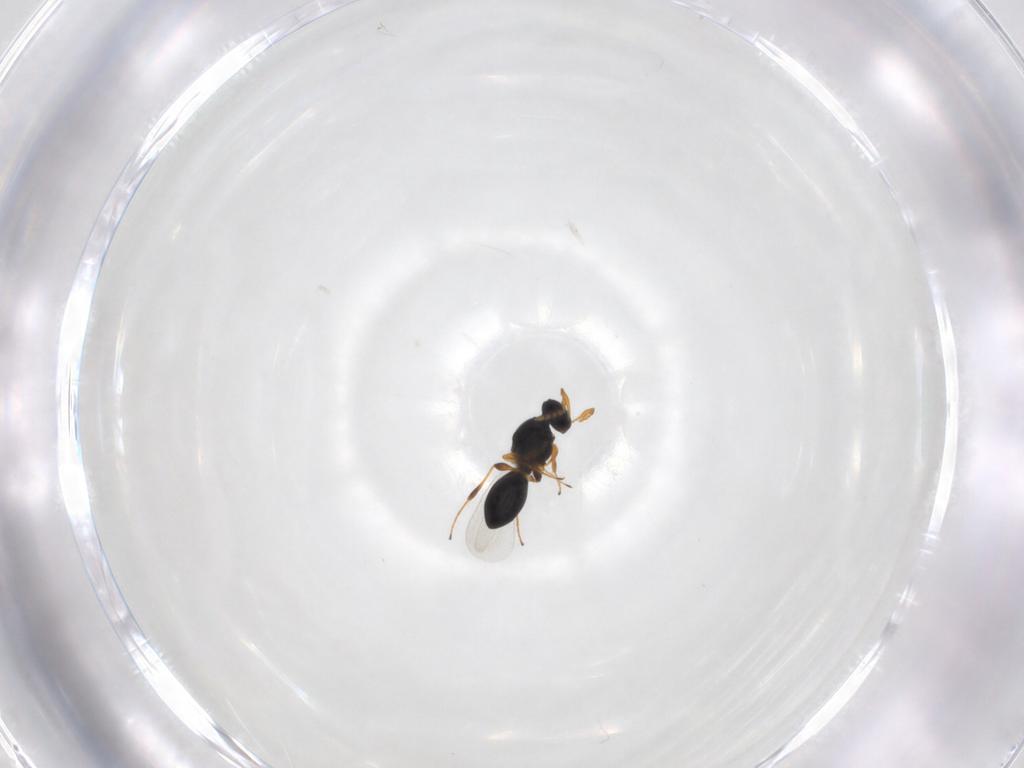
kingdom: Animalia
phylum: Arthropoda
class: Insecta
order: Hymenoptera
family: Platygastridae
